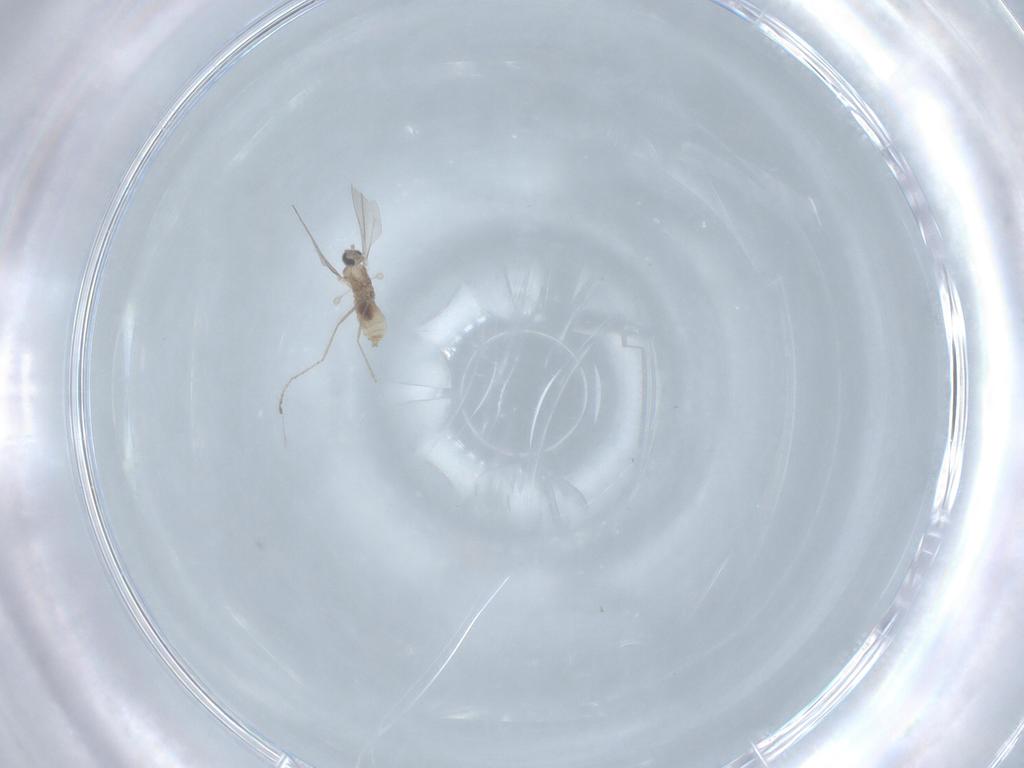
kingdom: Animalia
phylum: Arthropoda
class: Insecta
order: Diptera
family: Cecidomyiidae
